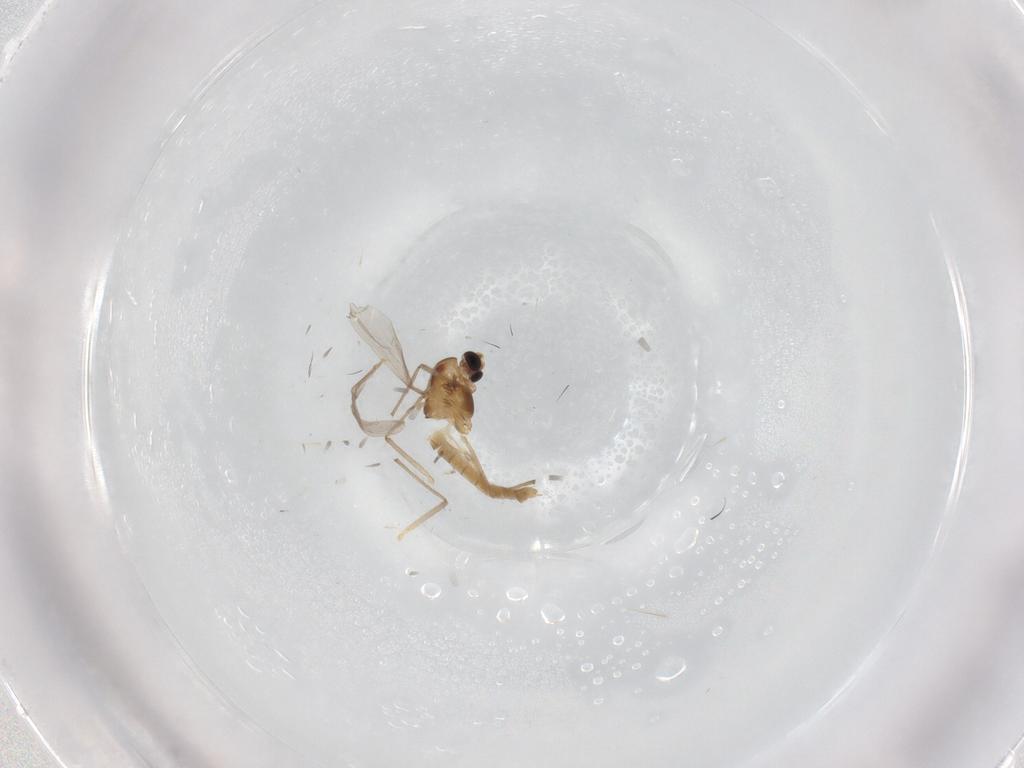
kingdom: Animalia
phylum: Arthropoda
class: Insecta
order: Diptera
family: Sciaridae
